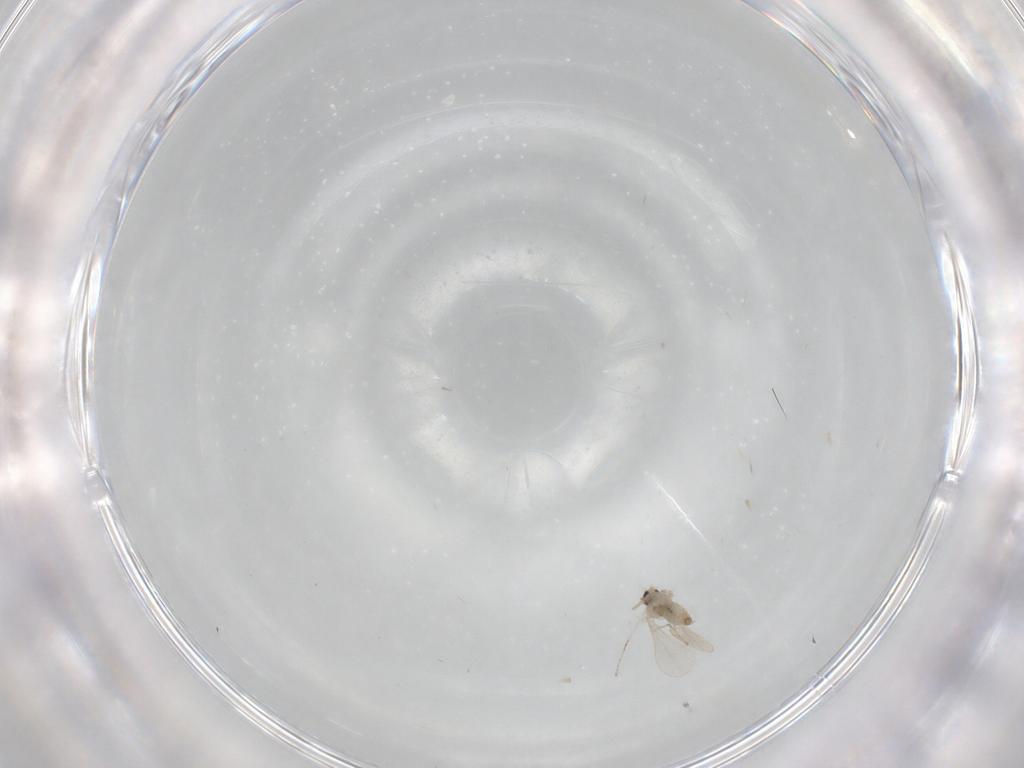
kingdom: Animalia
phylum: Arthropoda
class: Insecta
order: Diptera
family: Cecidomyiidae
